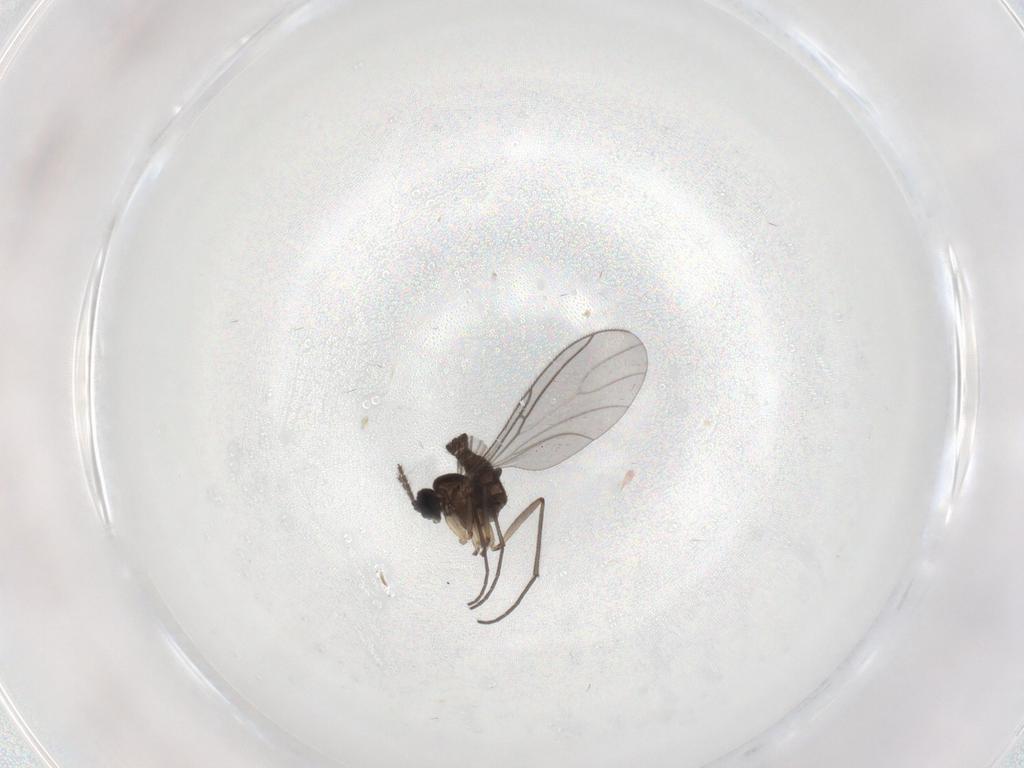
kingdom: Animalia
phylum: Arthropoda
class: Insecta
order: Diptera
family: Sciaridae
